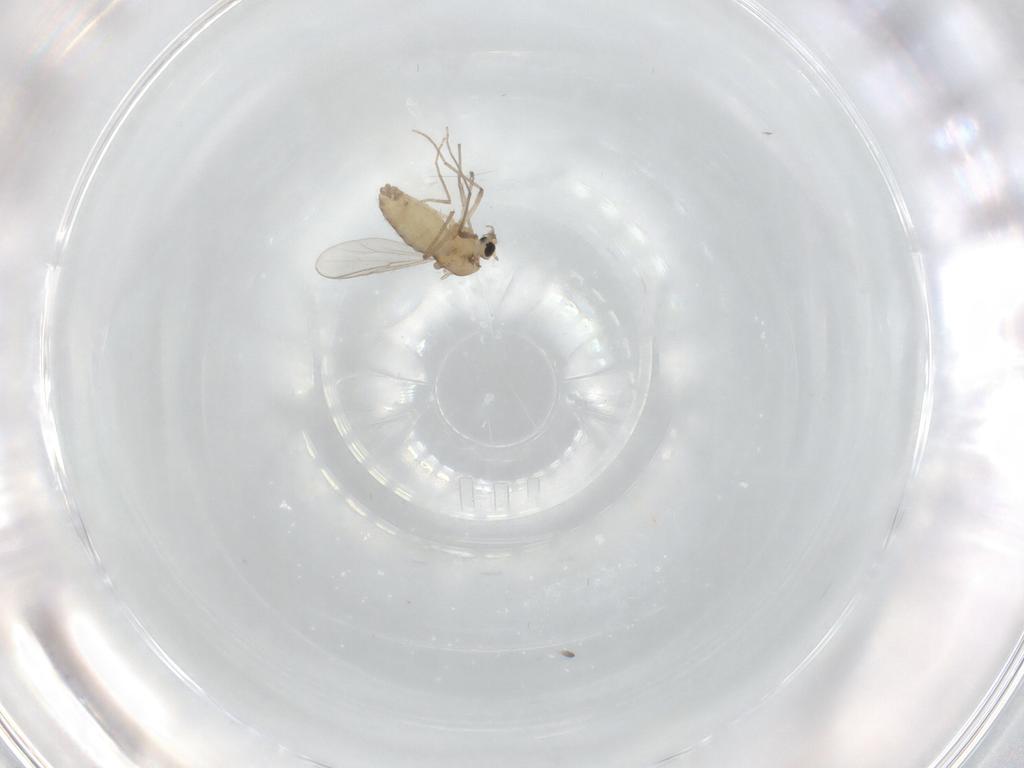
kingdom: Animalia
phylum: Arthropoda
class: Insecta
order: Diptera
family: Chironomidae
